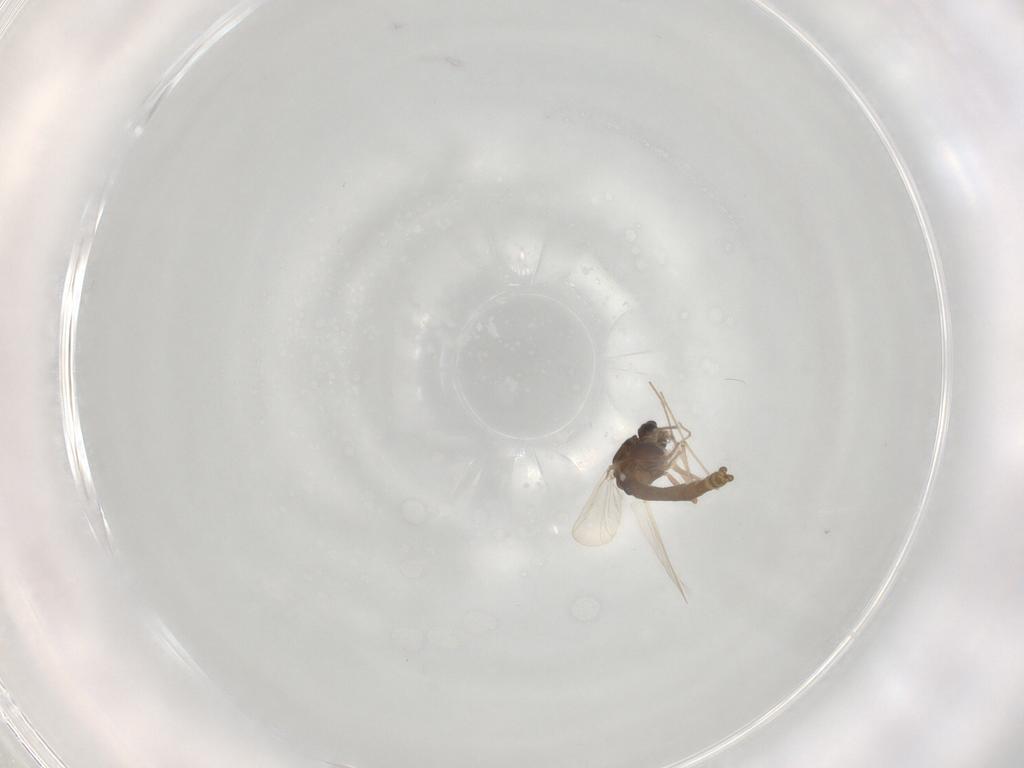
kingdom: Animalia
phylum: Arthropoda
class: Insecta
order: Diptera
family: Chironomidae
